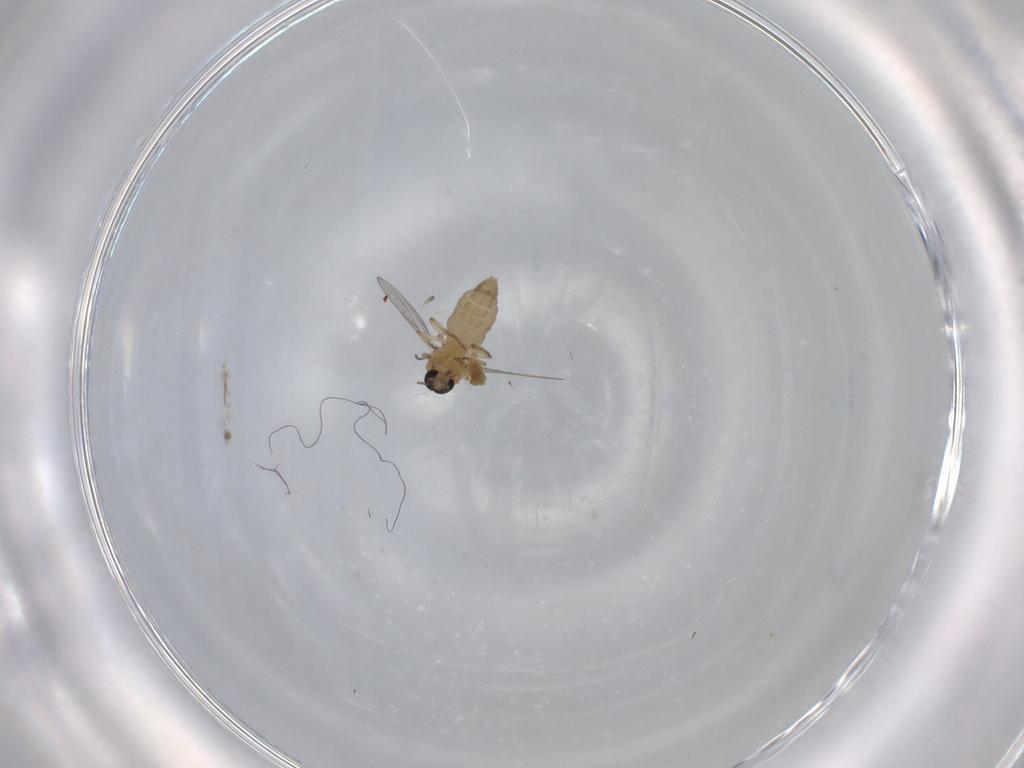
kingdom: Animalia
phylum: Arthropoda
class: Insecta
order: Diptera
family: Ceratopogonidae
